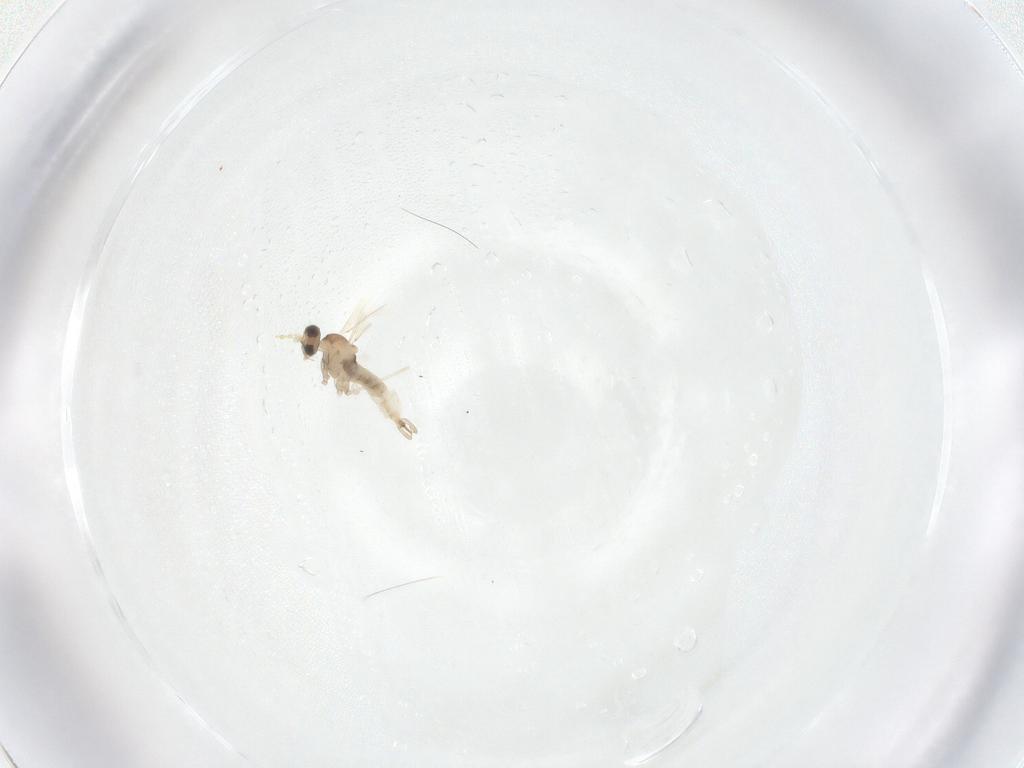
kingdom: Animalia
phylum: Arthropoda
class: Insecta
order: Diptera
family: Cecidomyiidae
